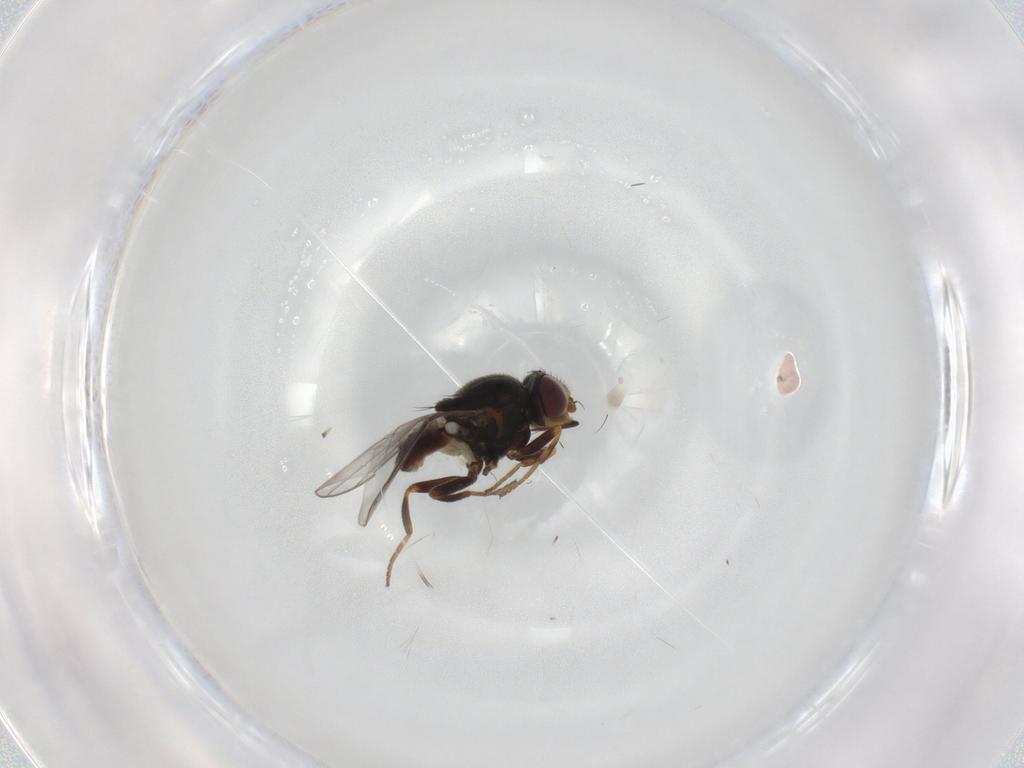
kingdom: Animalia
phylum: Arthropoda
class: Insecta
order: Diptera
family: Chloropidae
